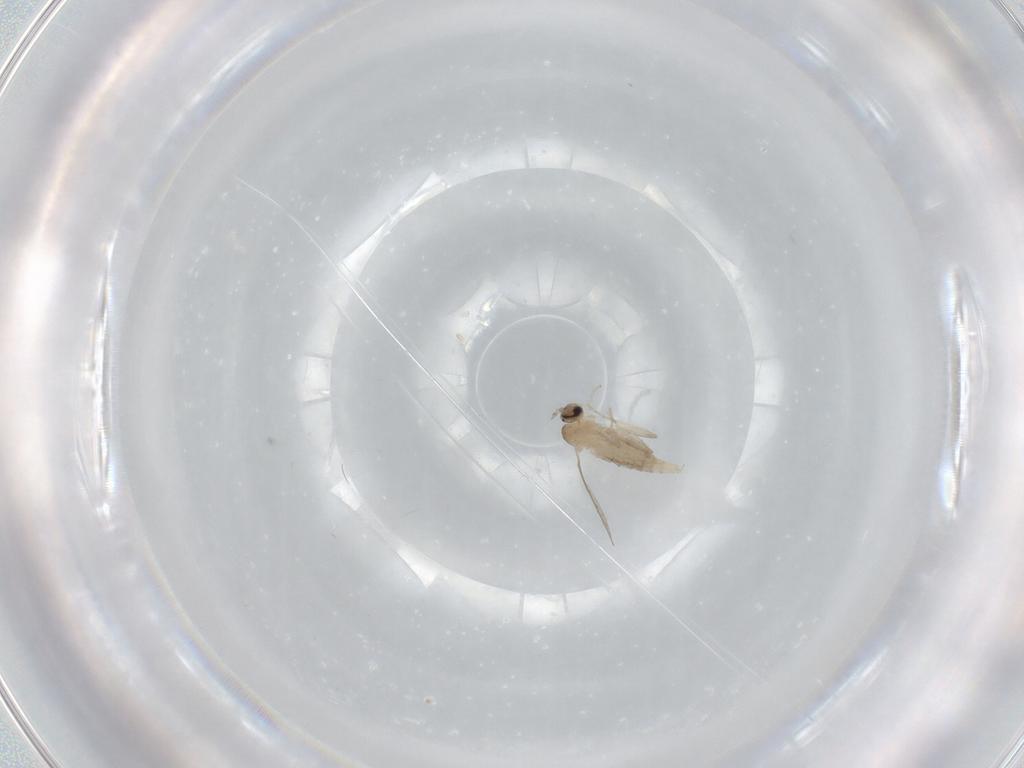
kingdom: Animalia
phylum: Arthropoda
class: Insecta
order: Diptera
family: Cecidomyiidae
